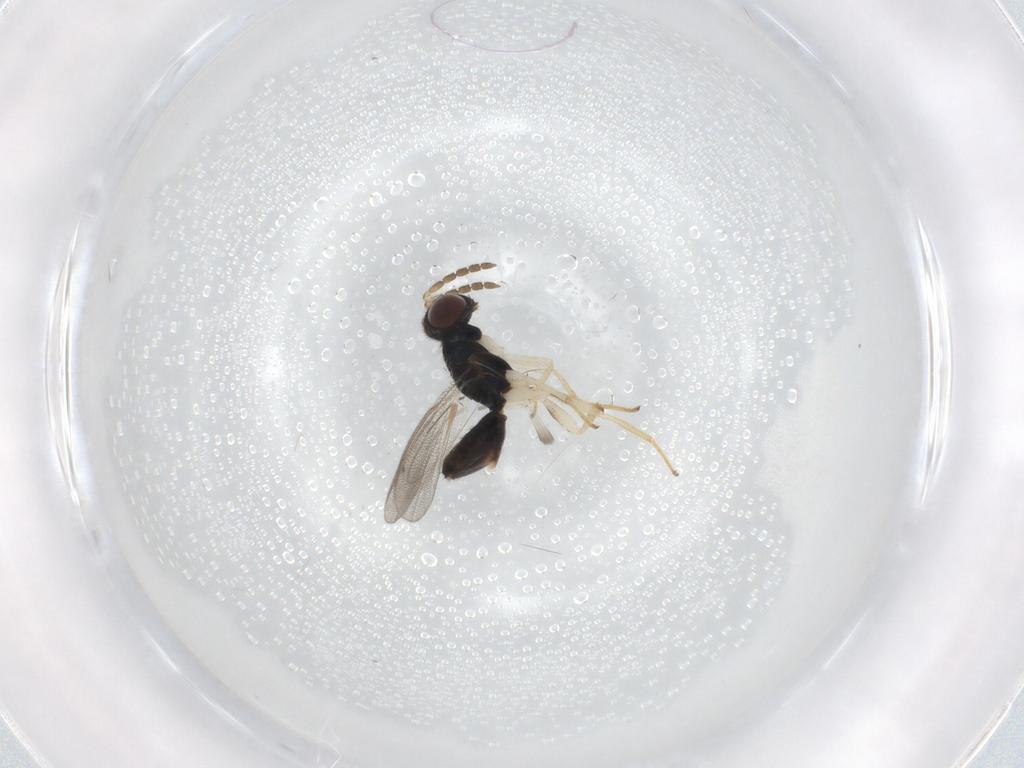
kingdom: Animalia
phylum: Arthropoda
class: Insecta
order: Hymenoptera
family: Eulophidae
